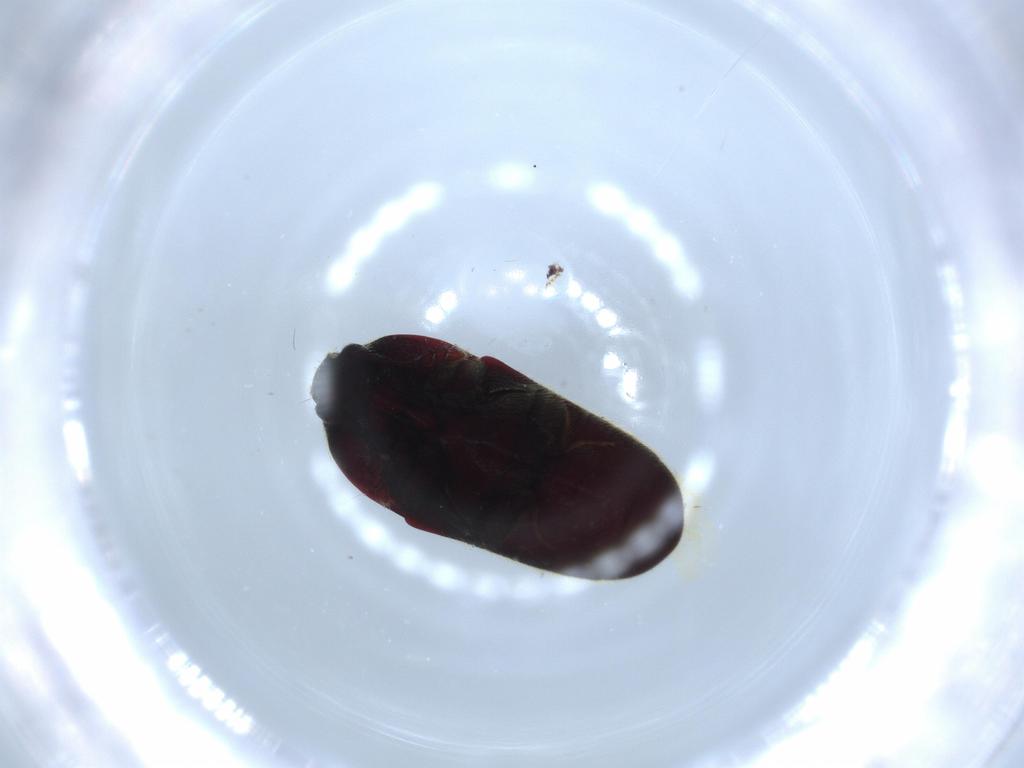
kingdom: Animalia
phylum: Arthropoda
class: Insecta
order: Coleoptera
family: Throscidae
